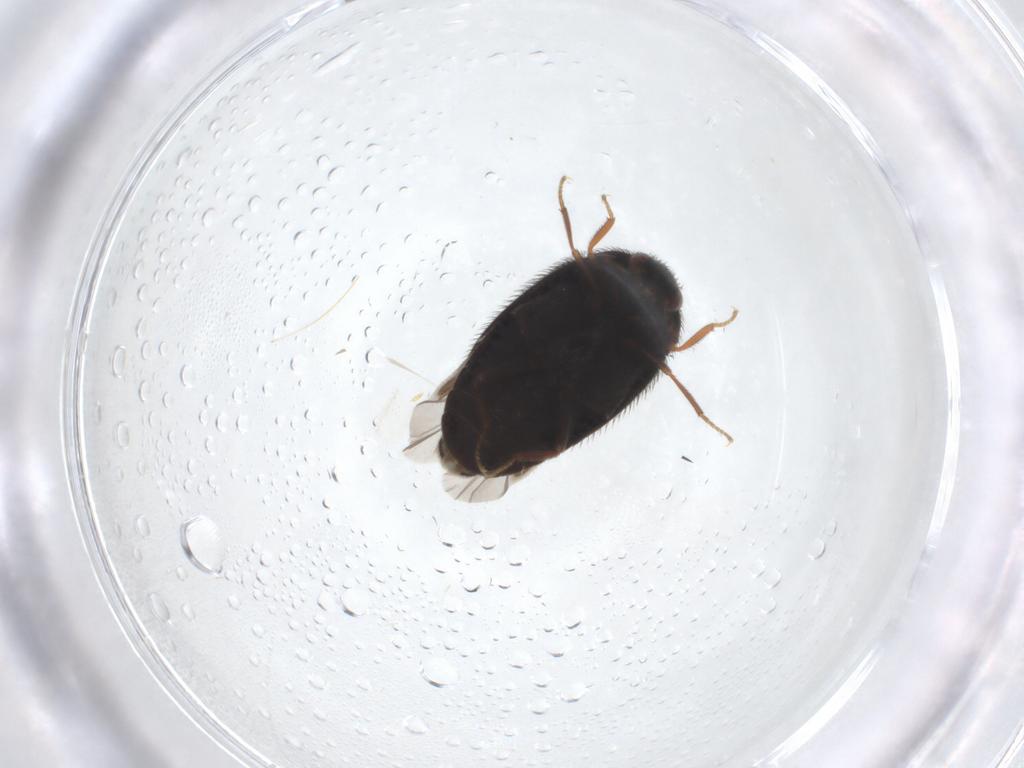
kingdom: Animalia
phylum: Arthropoda
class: Insecta
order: Coleoptera
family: Dermestidae
